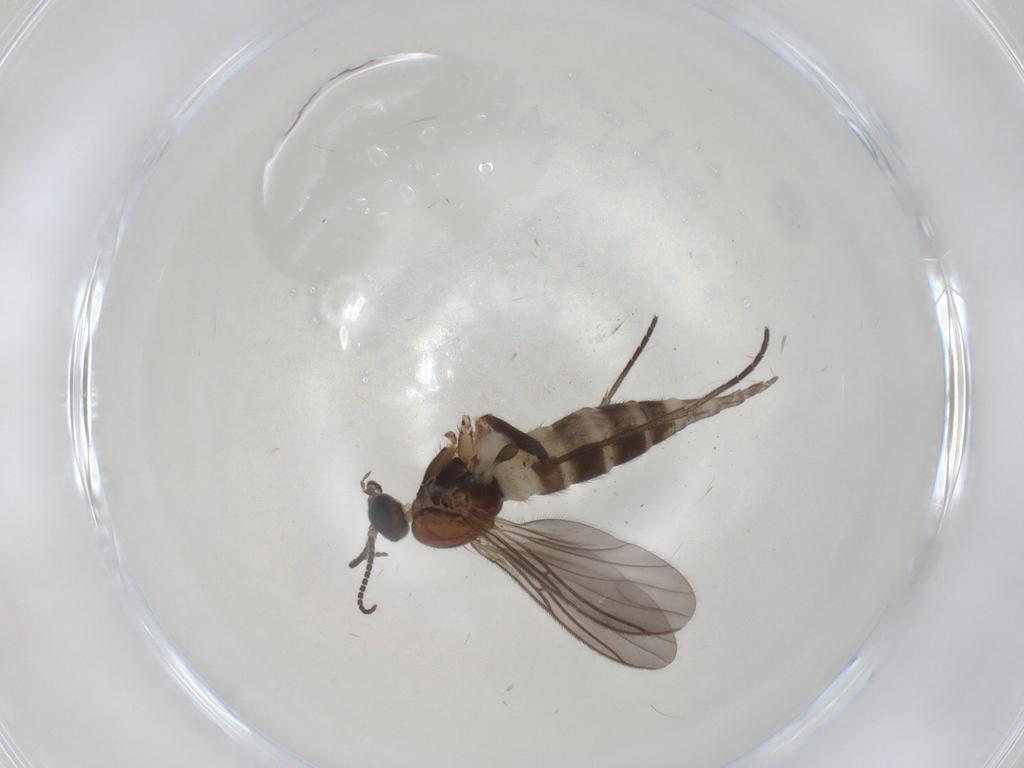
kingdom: Animalia
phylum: Arthropoda
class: Insecta
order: Diptera
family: Sciaridae
